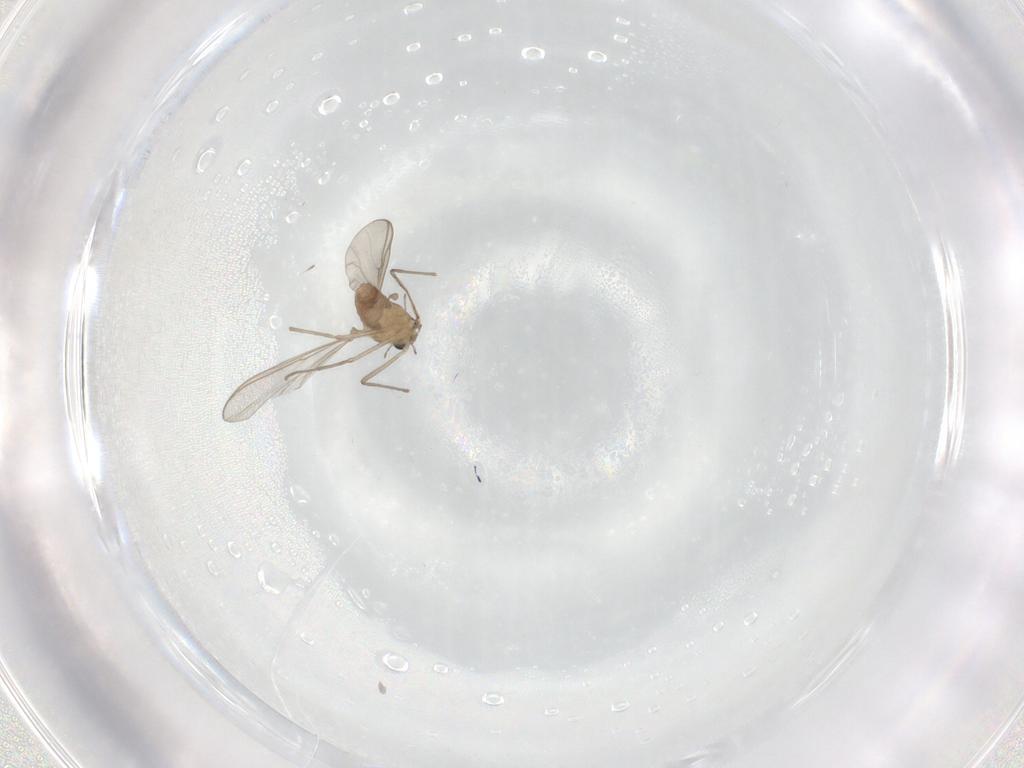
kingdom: Animalia
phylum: Arthropoda
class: Insecta
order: Diptera
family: Chironomidae
